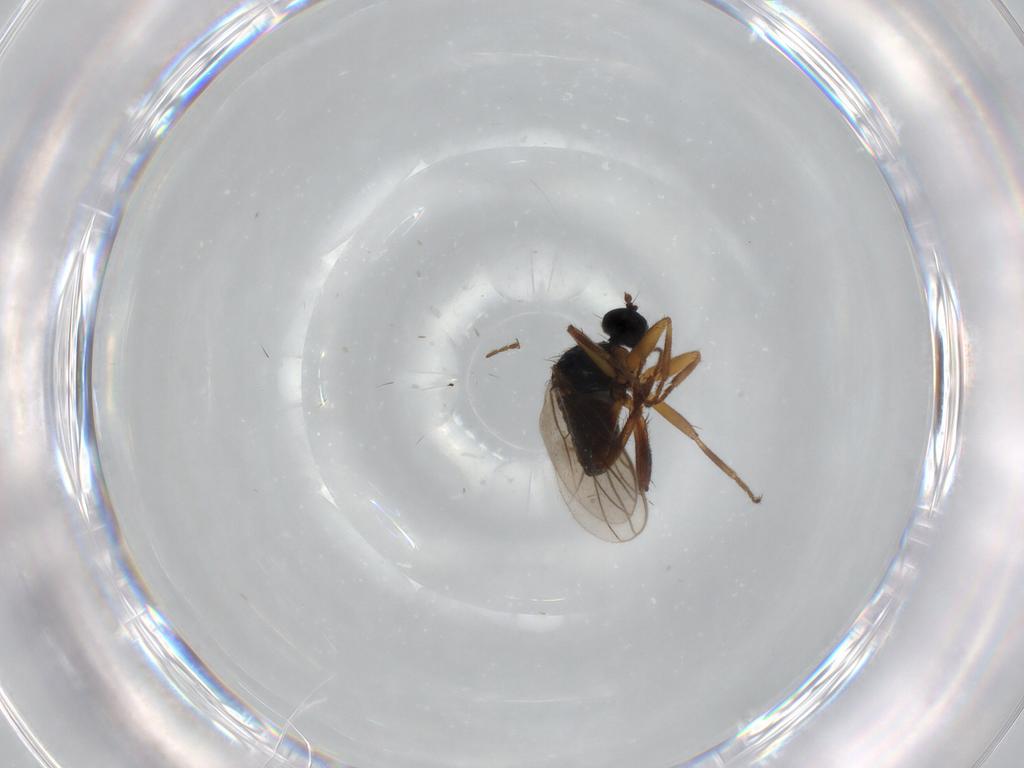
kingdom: Animalia
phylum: Arthropoda
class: Insecta
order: Diptera
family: Hybotidae
